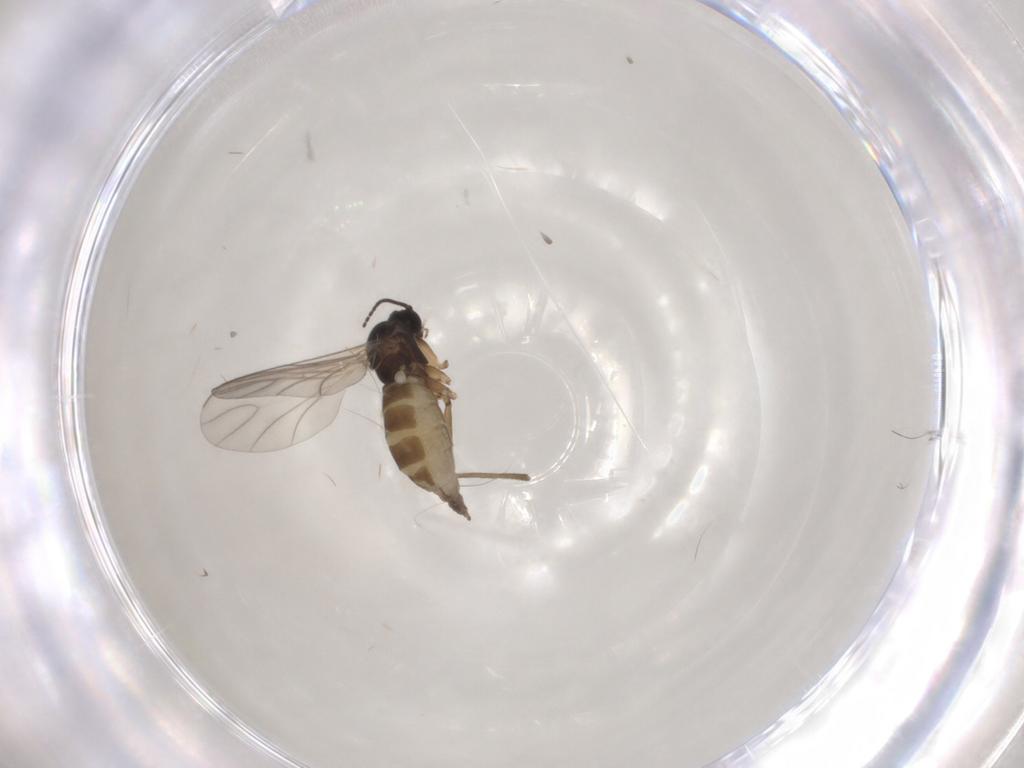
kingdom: Animalia
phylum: Arthropoda
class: Insecta
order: Diptera
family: Sciaridae
